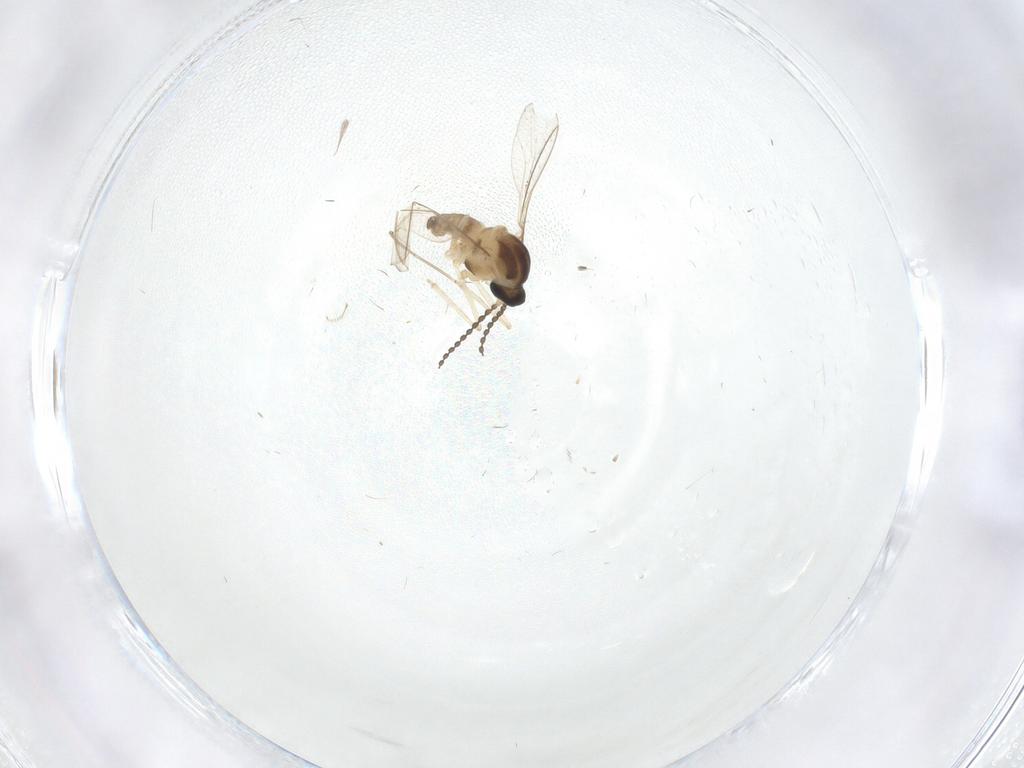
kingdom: Animalia
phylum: Arthropoda
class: Insecta
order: Diptera
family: Cecidomyiidae
